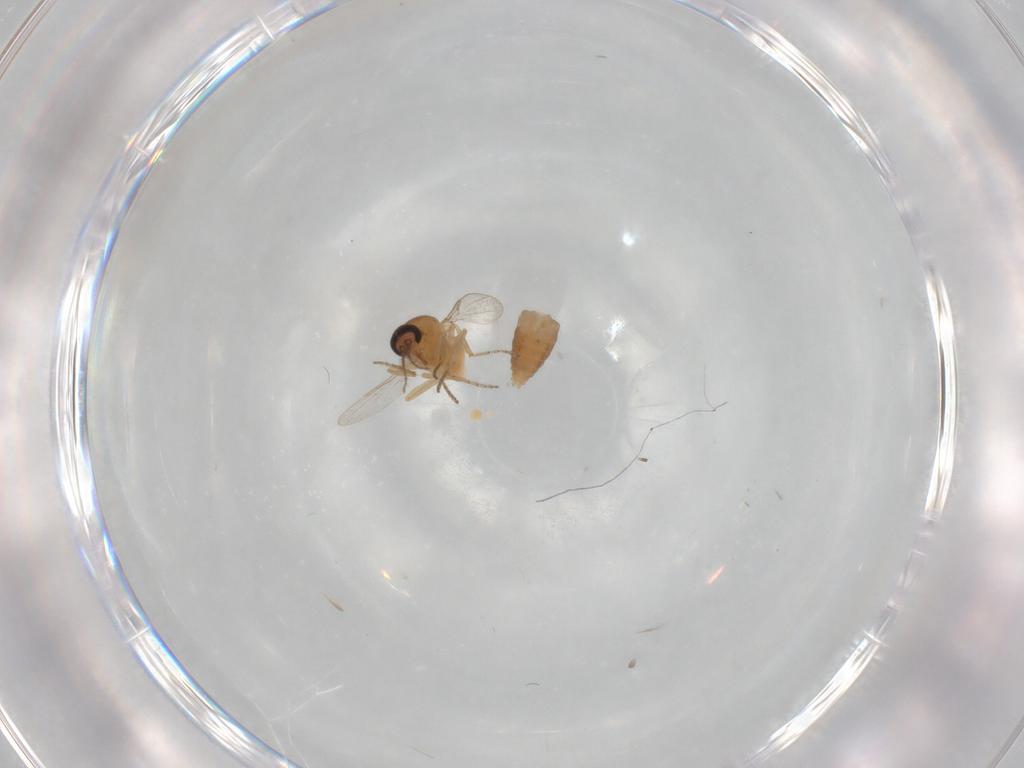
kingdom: Animalia
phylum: Arthropoda
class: Insecta
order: Diptera
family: Ceratopogonidae
